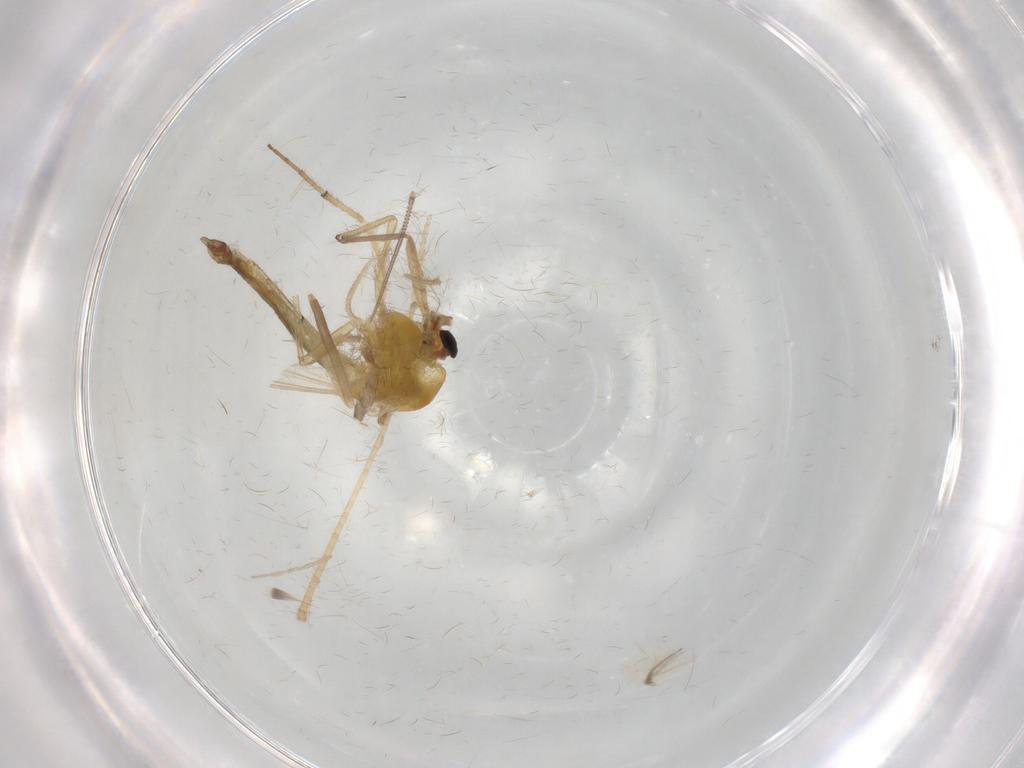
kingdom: Animalia
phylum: Arthropoda
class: Insecta
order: Diptera
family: Chironomidae
